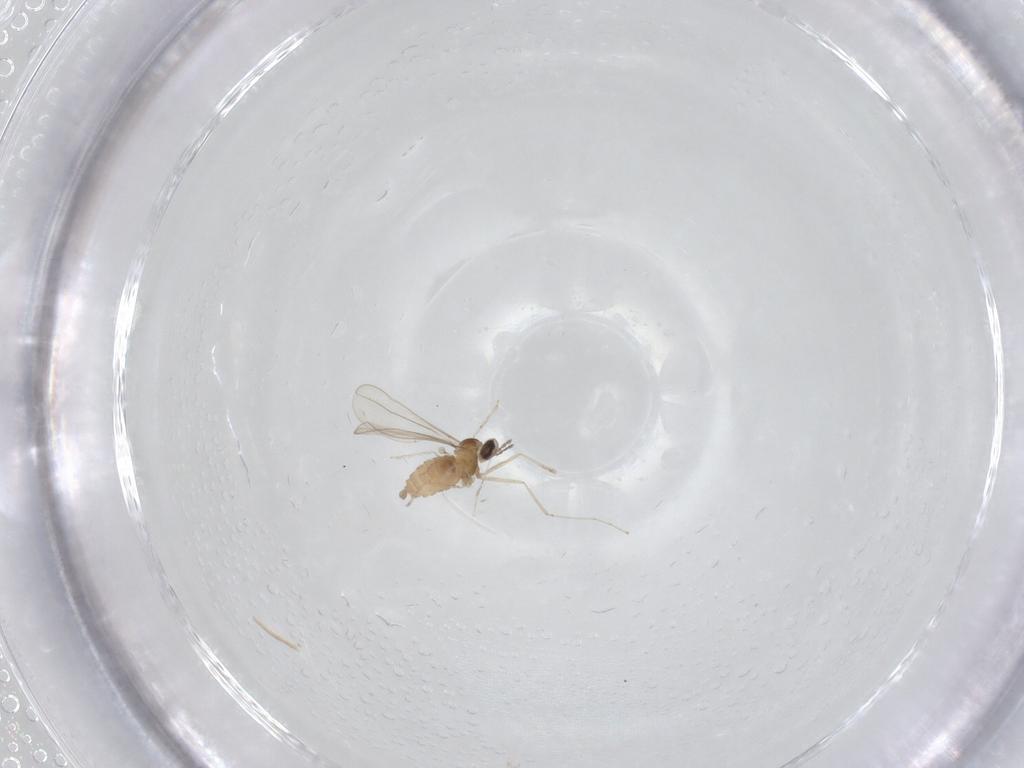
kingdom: Animalia
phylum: Arthropoda
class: Insecta
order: Diptera
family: Cecidomyiidae
